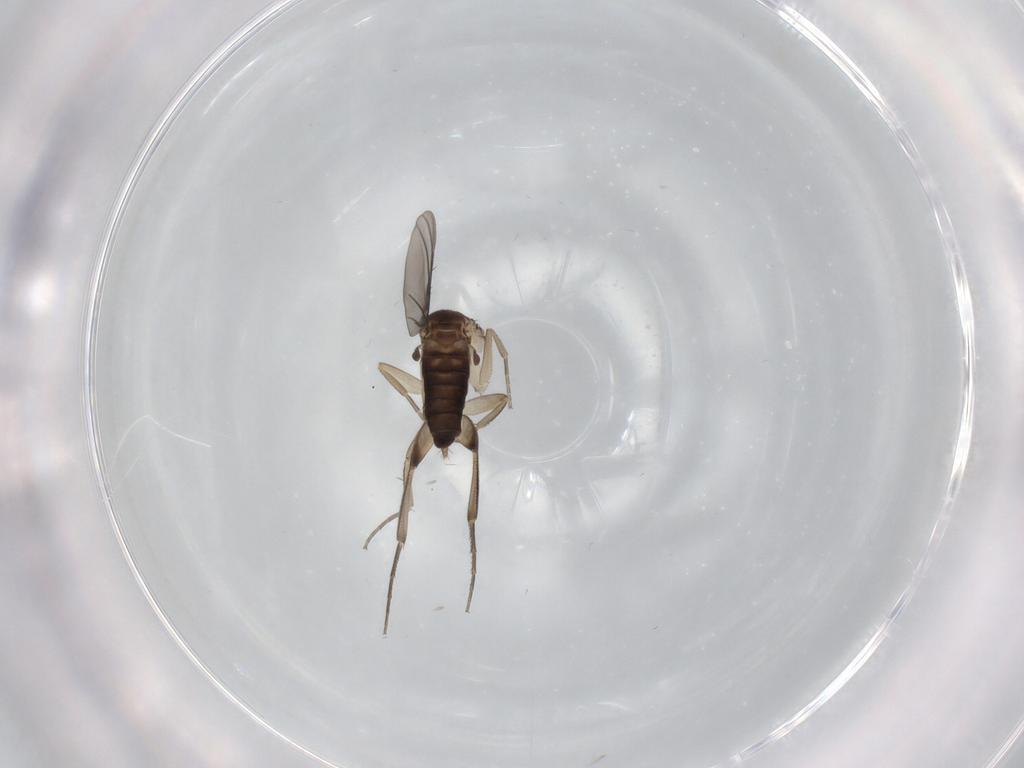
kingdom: Animalia
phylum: Arthropoda
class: Insecta
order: Diptera
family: Phoridae
